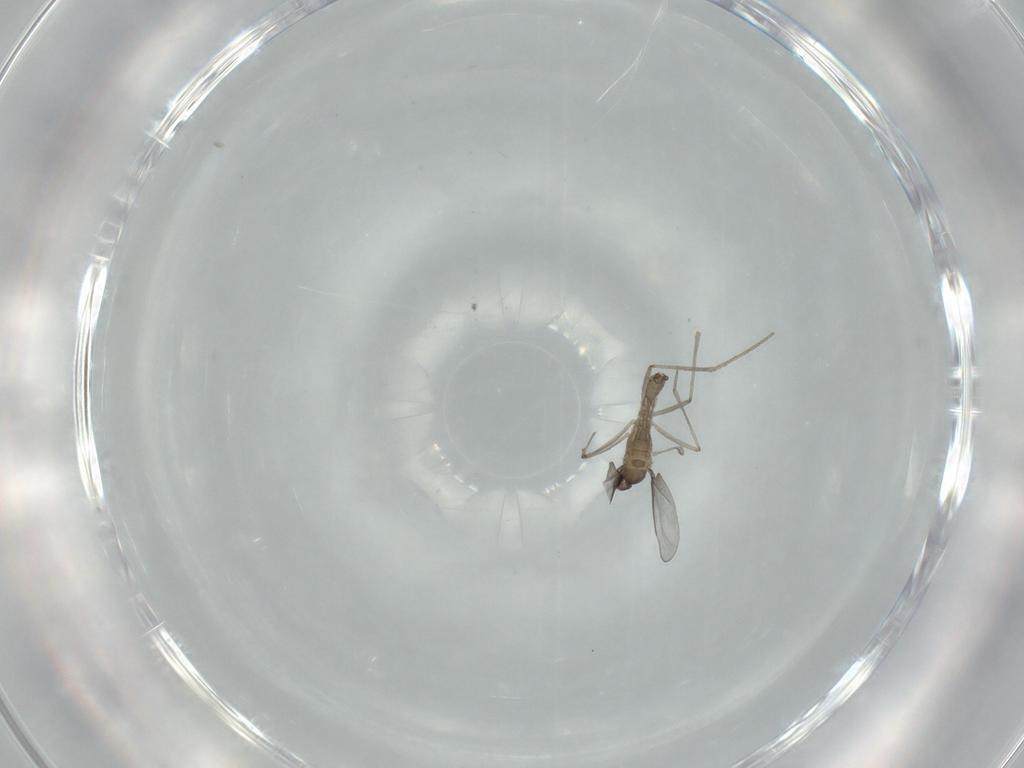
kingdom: Animalia
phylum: Arthropoda
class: Insecta
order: Diptera
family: Cecidomyiidae
